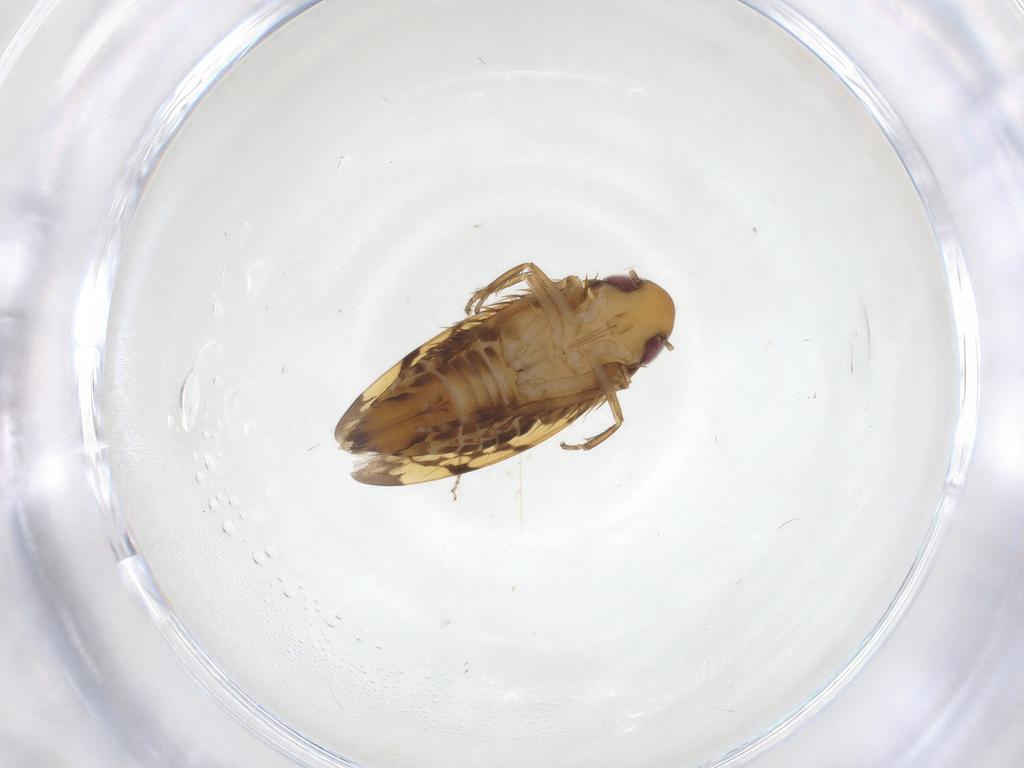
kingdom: Animalia
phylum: Arthropoda
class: Insecta
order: Hemiptera
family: Cicadellidae
